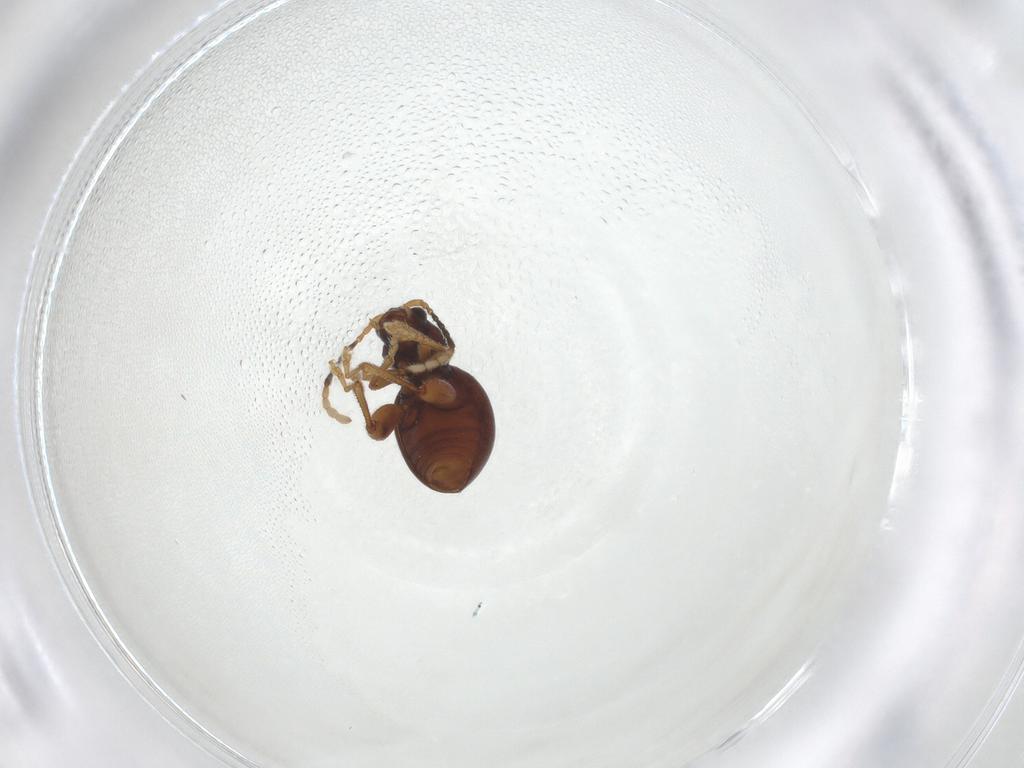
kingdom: Animalia
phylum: Arthropoda
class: Insecta
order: Coleoptera
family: Chrysomelidae
